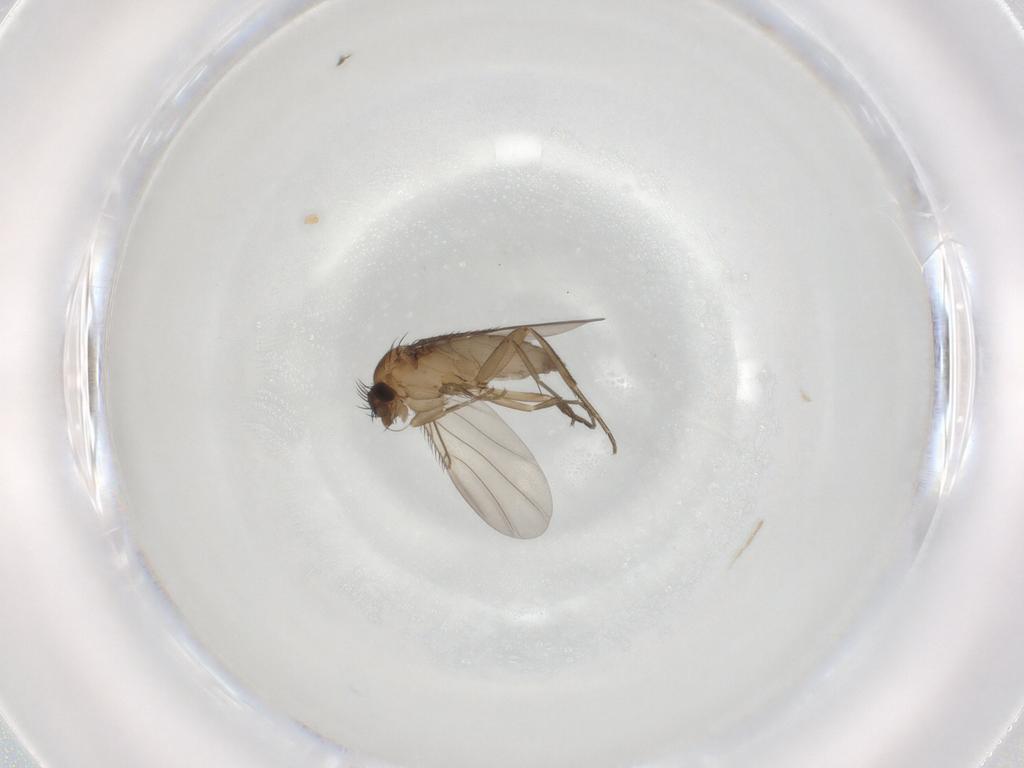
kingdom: Animalia
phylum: Arthropoda
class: Insecta
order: Diptera
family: Phoridae
